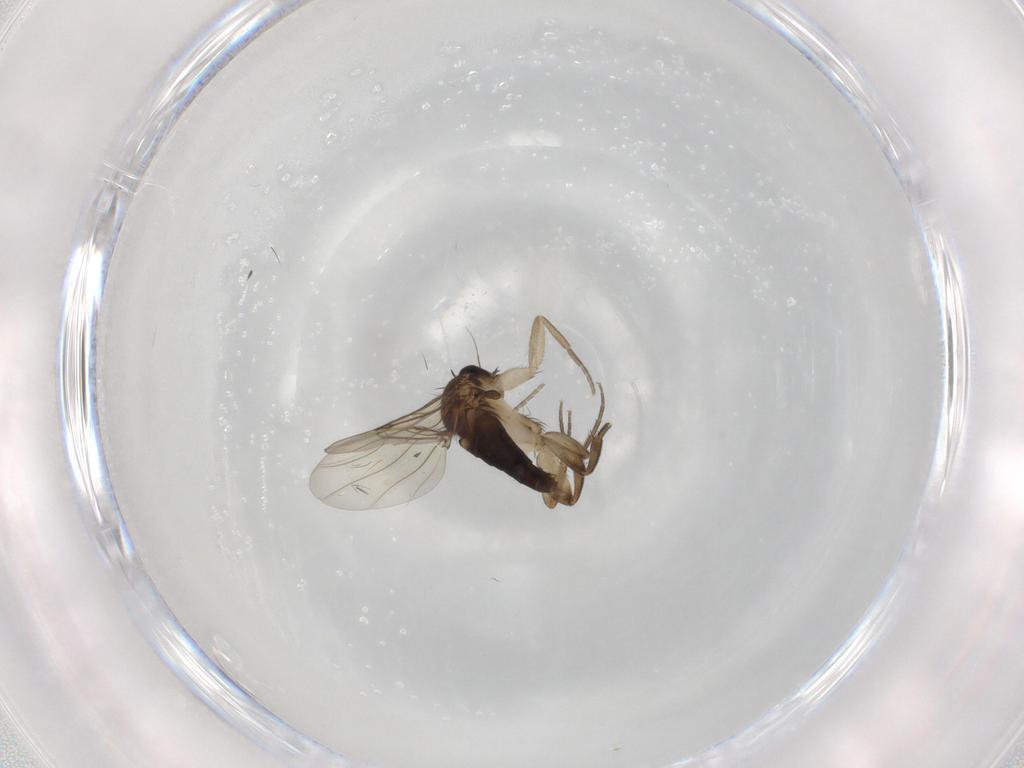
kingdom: Animalia
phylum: Arthropoda
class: Insecta
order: Diptera
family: Phoridae
